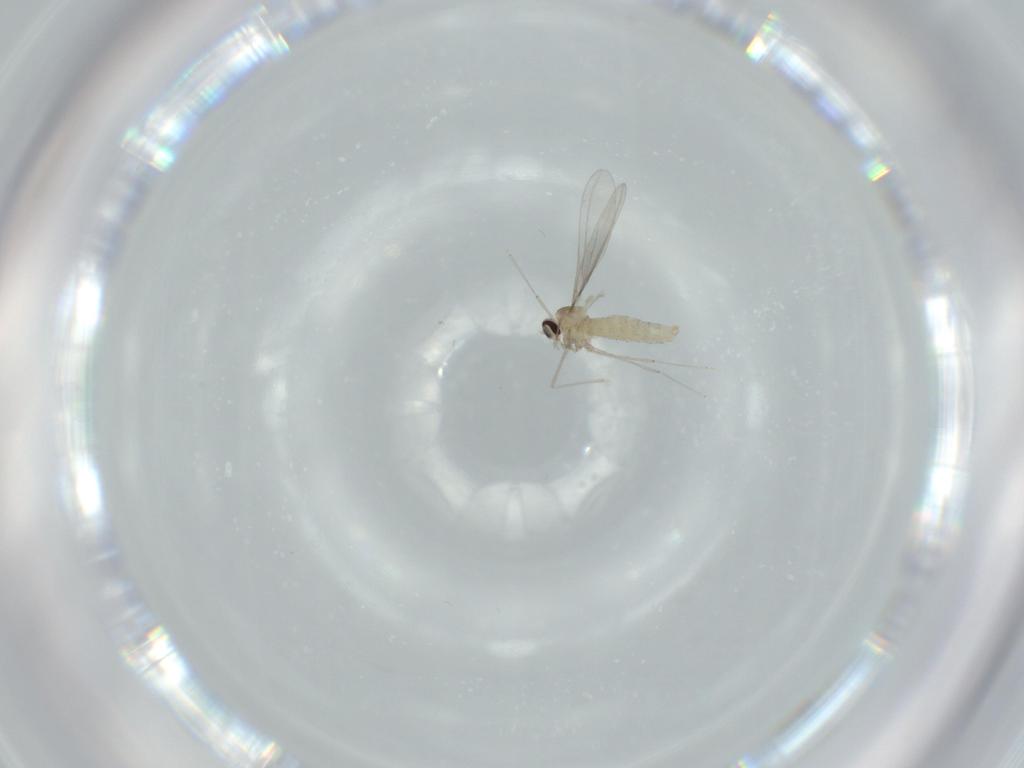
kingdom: Animalia
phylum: Arthropoda
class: Insecta
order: Diptera
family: Cecidomyiidae
